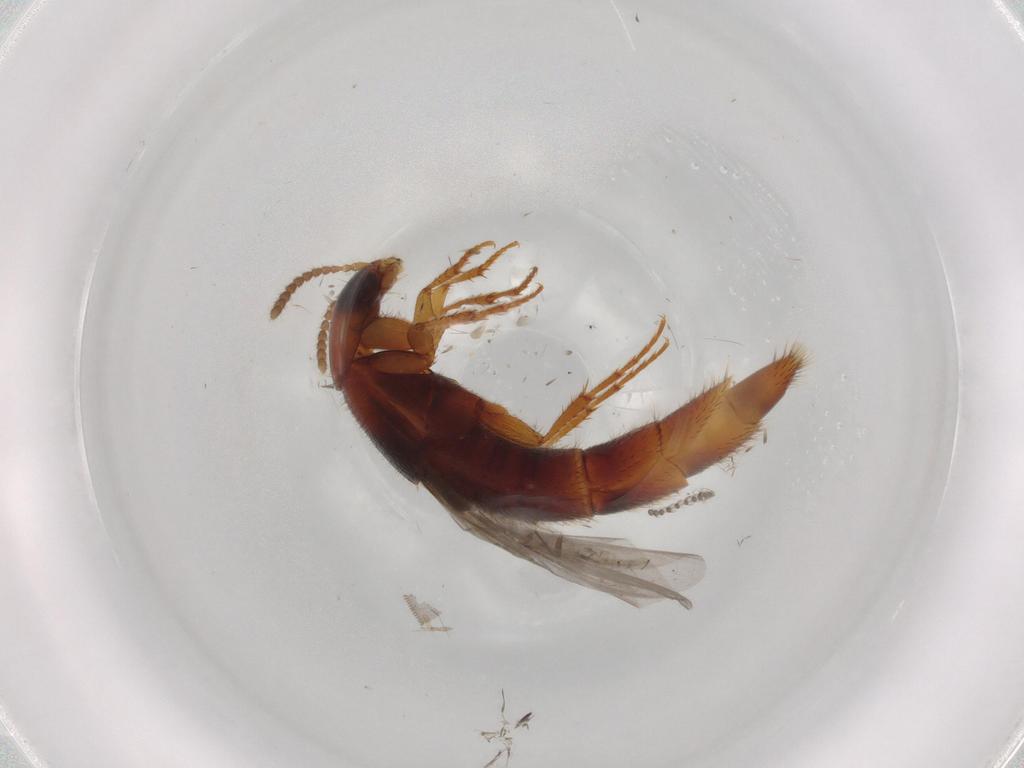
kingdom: Animalia
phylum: Arthropoda
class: Insecta
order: Coleoptera
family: Staphylinidae
